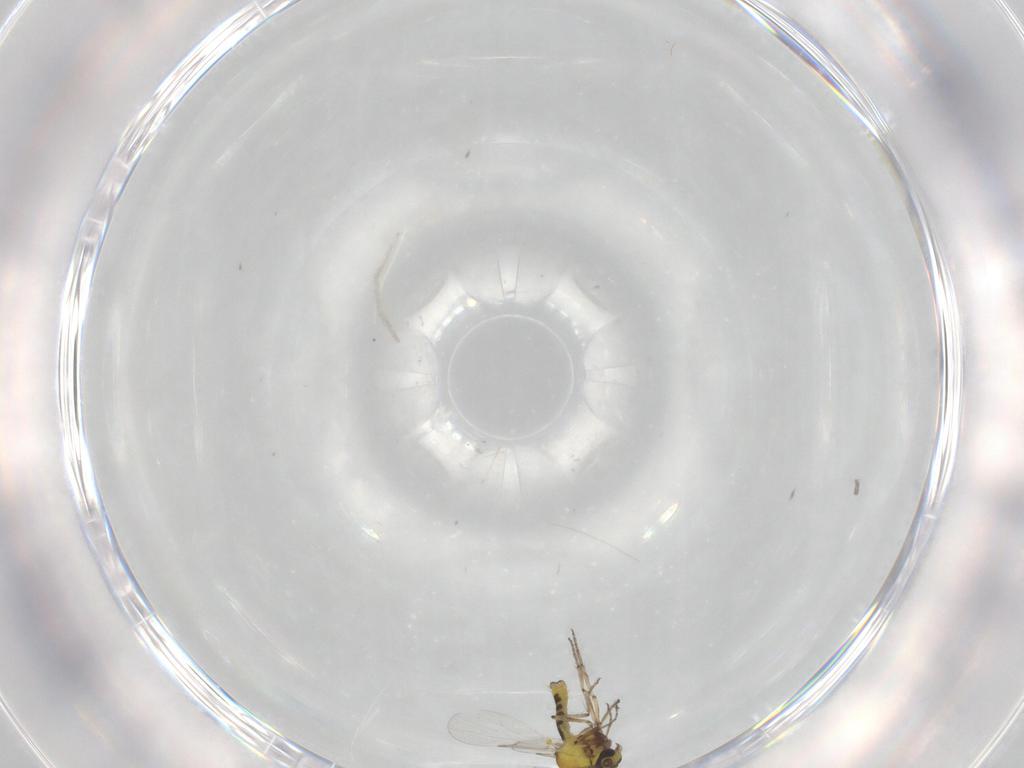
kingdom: Animalia
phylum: Arthropoda
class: Insecta
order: Diptera
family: Ceratopogonidae
